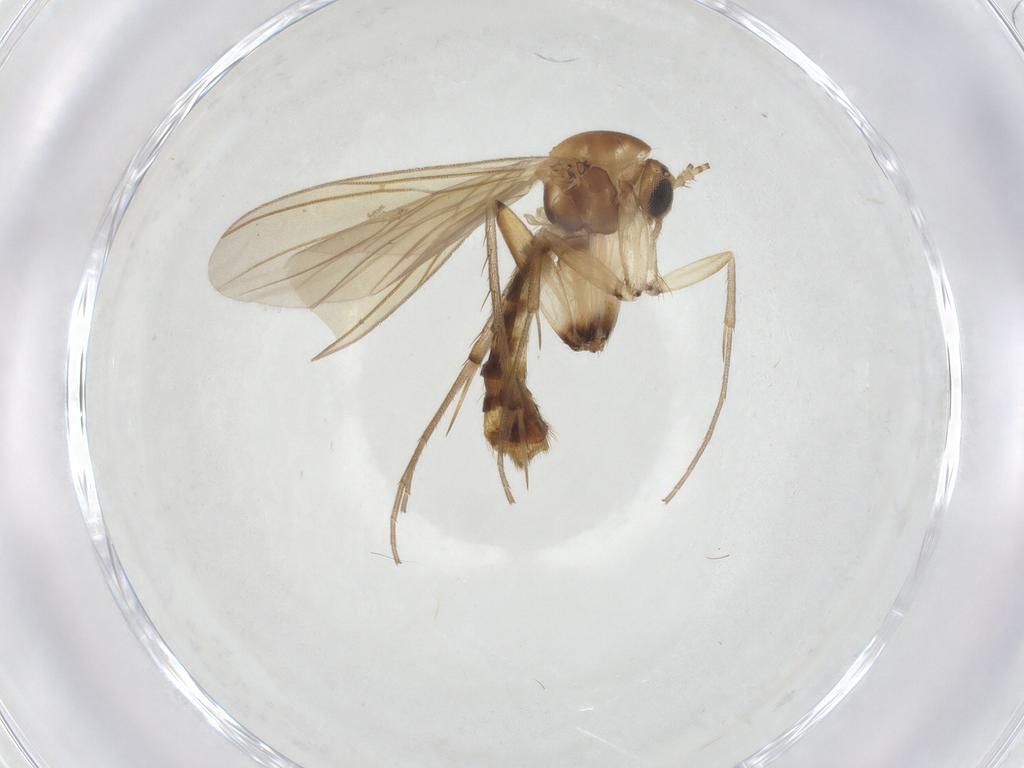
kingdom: Animalia
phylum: Arthropoda
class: Insecta
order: Diptera
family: Mycetophilidae
